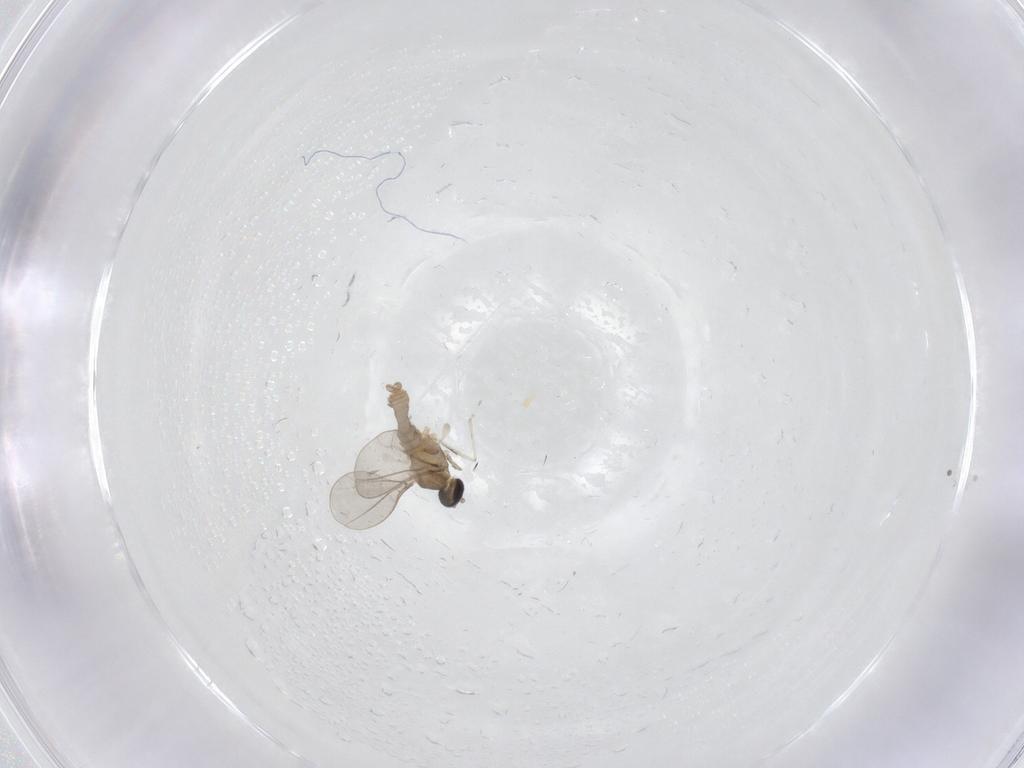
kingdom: Animalia
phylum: Arthropoda
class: Insecta
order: Diptera
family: Ceratopogonidae
